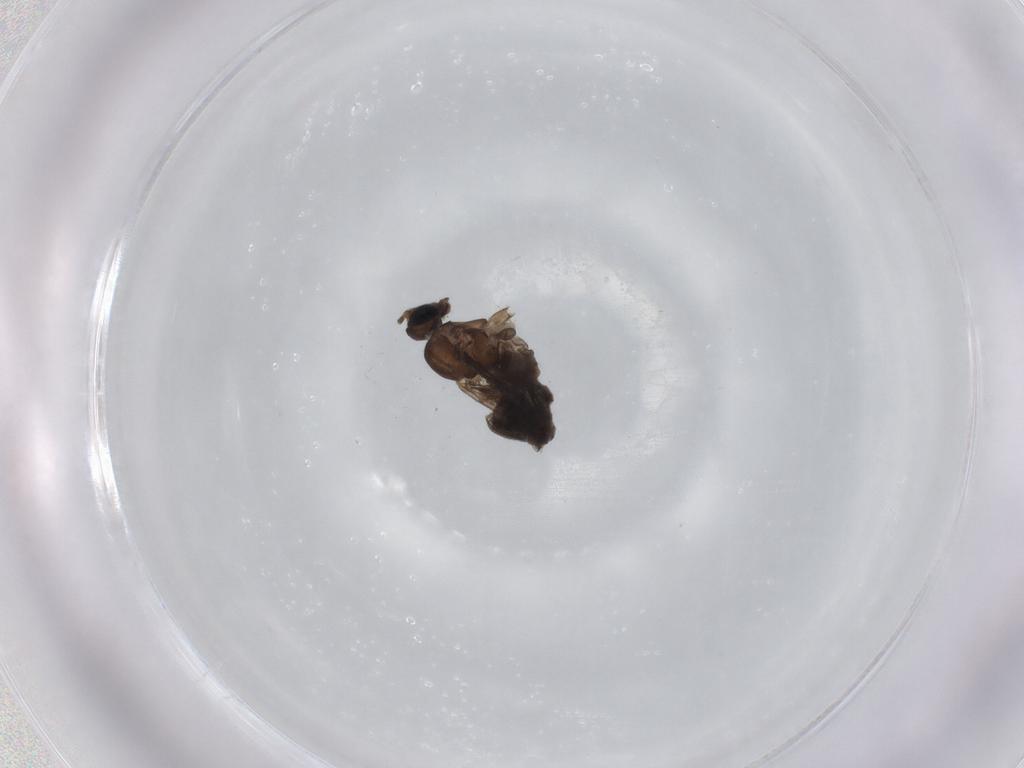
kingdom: Animalia
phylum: Arthropoda
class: Insecta
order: Diptera
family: Sciaridae
